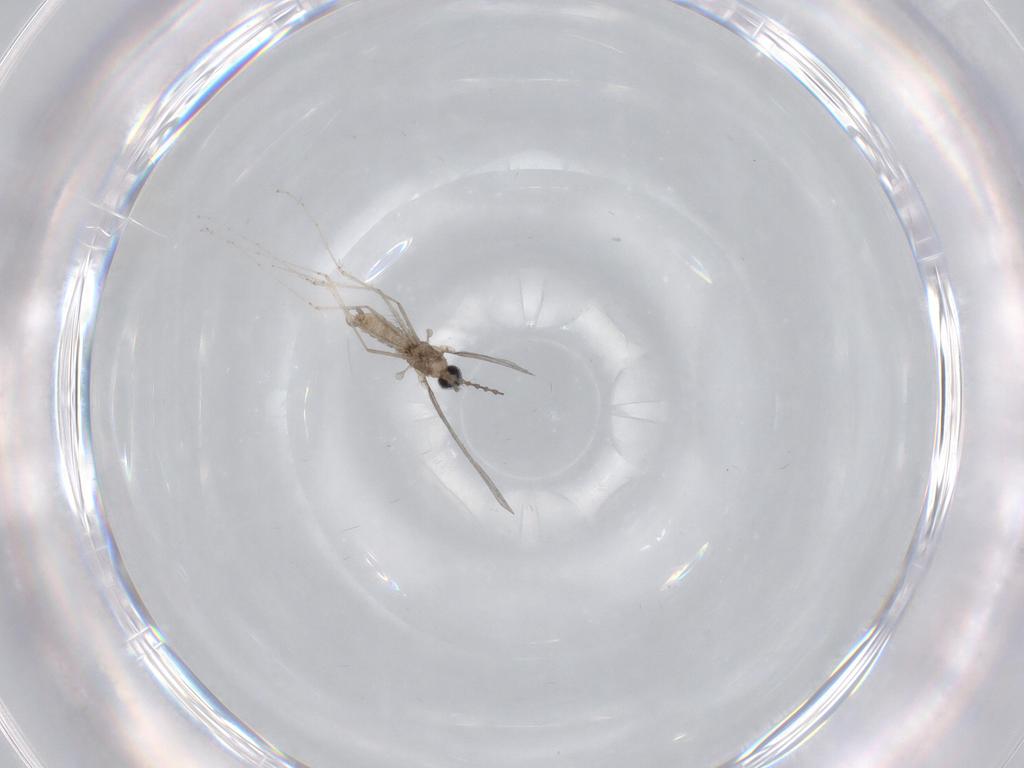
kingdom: Animalia
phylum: Arthropoda
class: Insecta
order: Diptera
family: Cecidomyiidae
